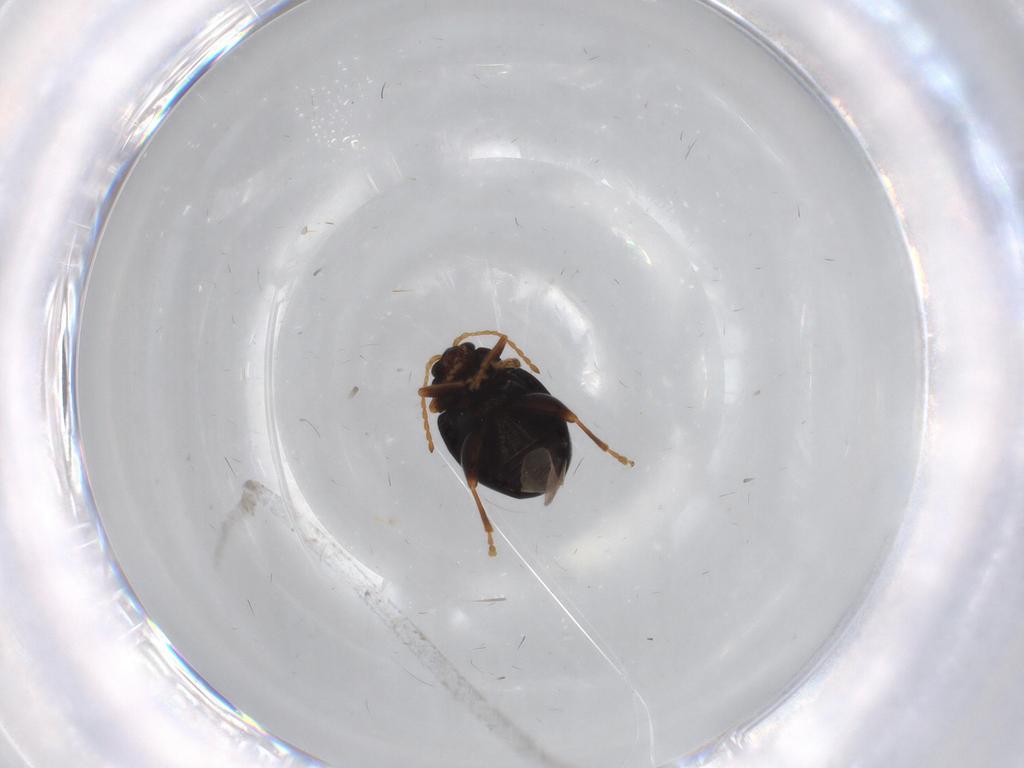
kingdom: Animalia
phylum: Arthropoda
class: Insecta
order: Coleoptera
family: Chrysomelidae
